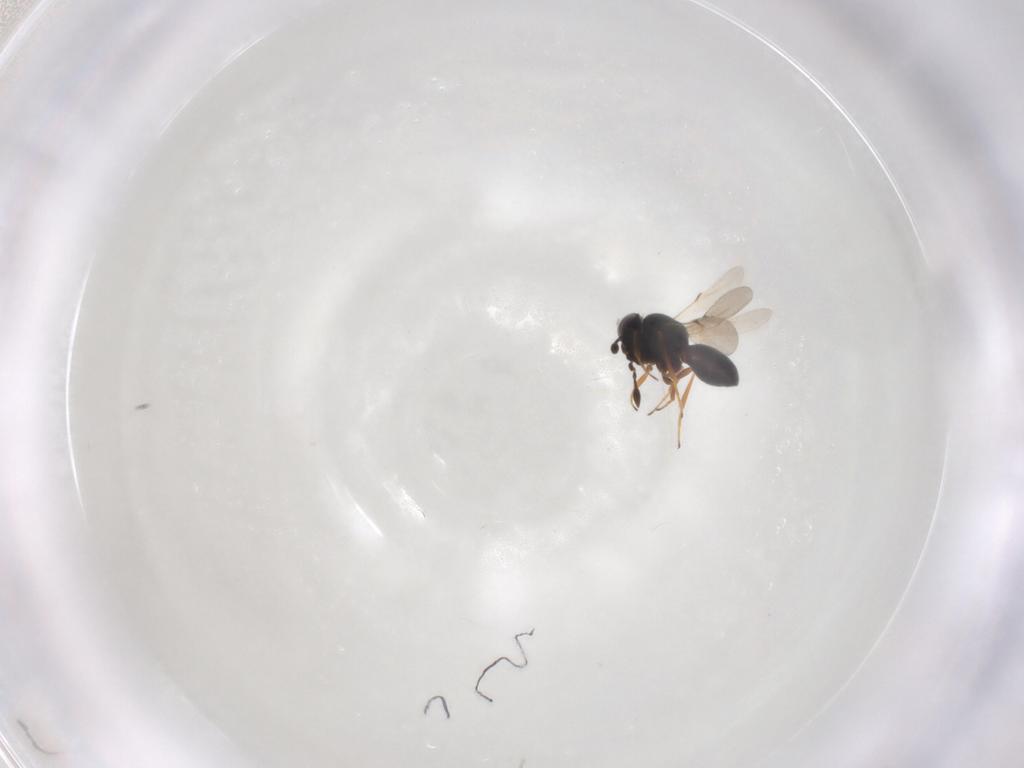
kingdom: Animalia
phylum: Arthropoda
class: Insecta
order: Hymenoptera
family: Scelionidae
